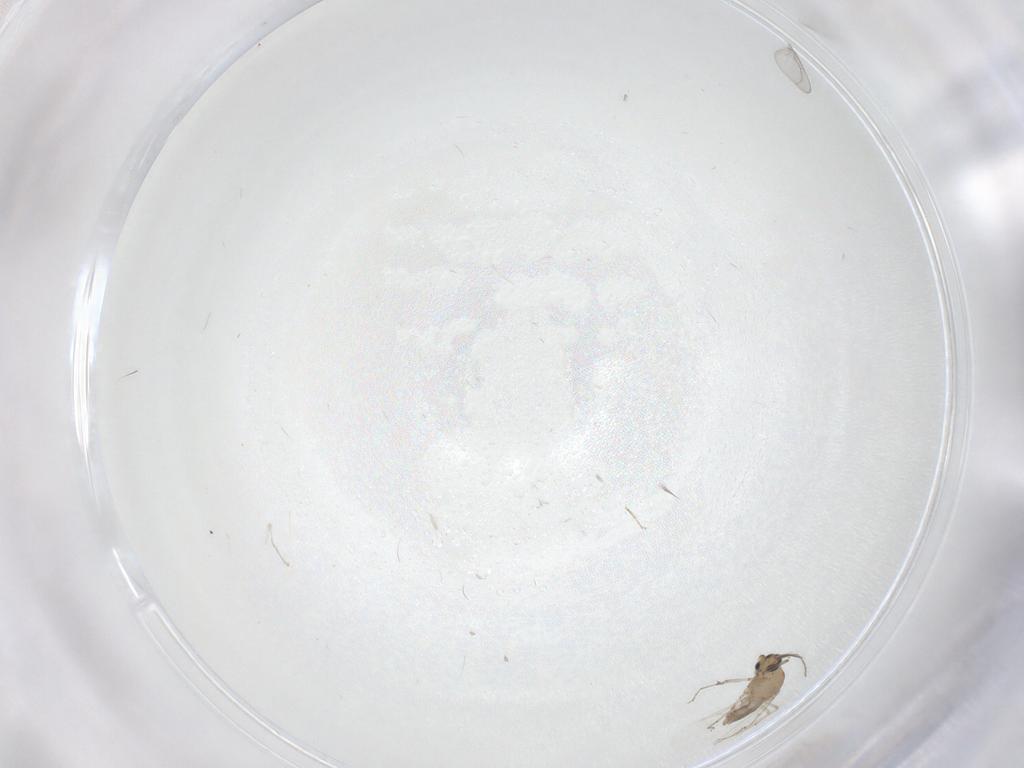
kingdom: Animalia
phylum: Arthropoda
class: Insecta
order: Diptera
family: Ceratopogonidae
